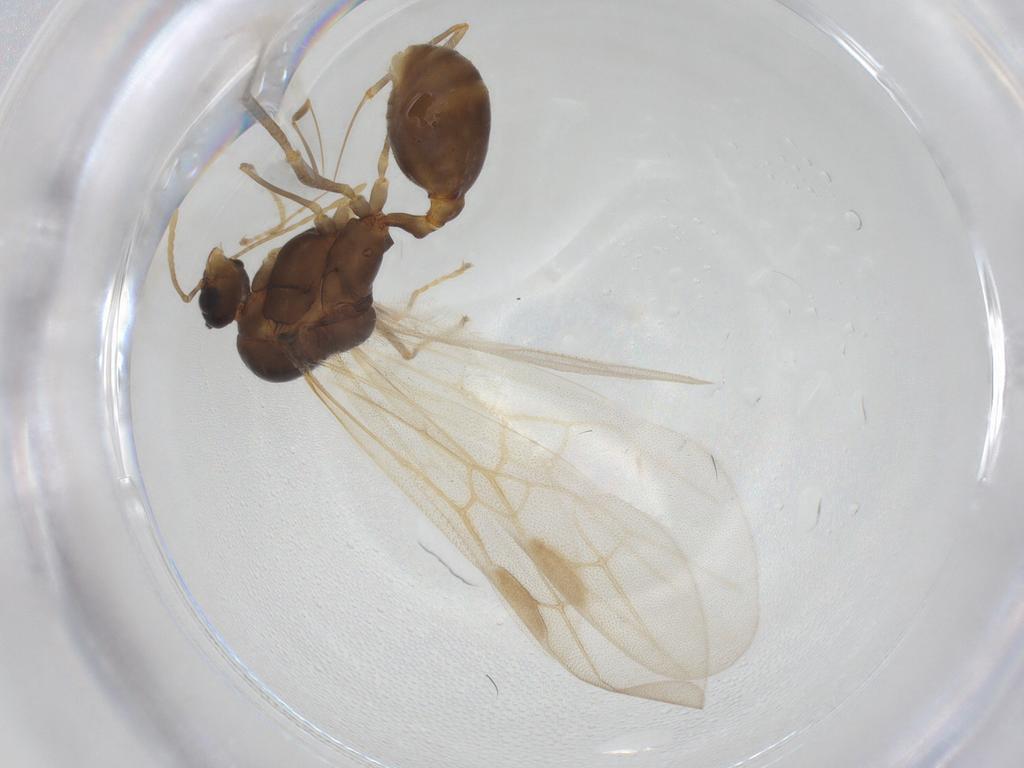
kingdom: Animalia
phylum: Arthropoda
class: Insecta
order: Hymenoptera
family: Formicidae
